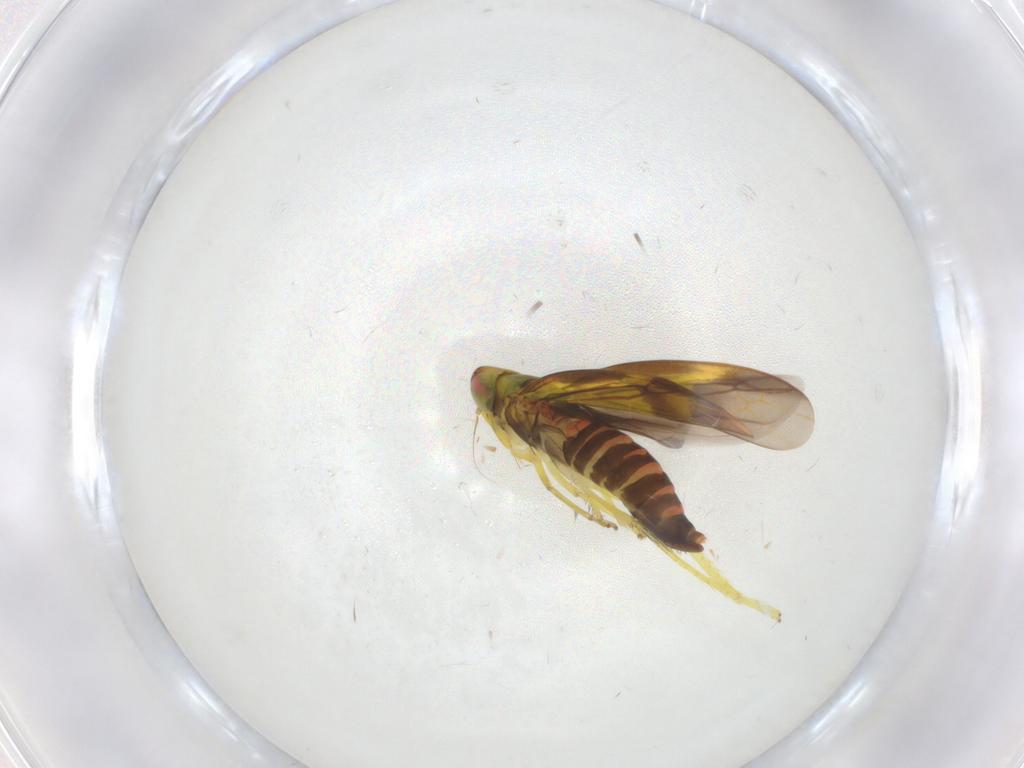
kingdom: Animalia
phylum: Arthropoda
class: Insecta
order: Hemiptera
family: Cicadellidae
